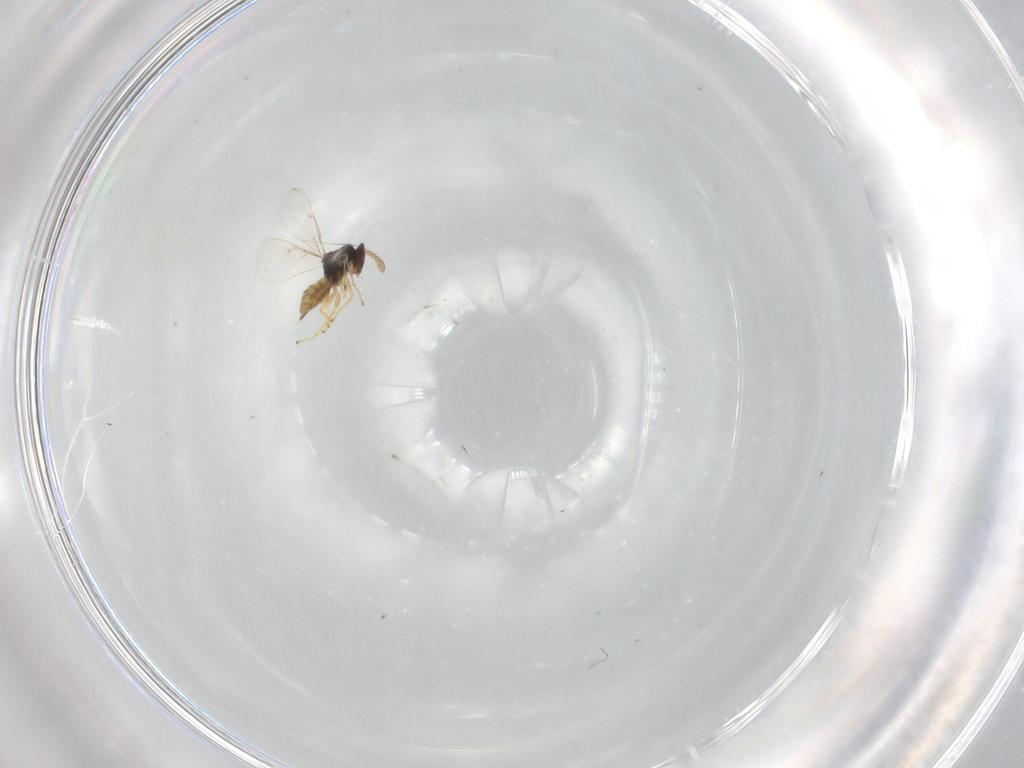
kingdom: Animalia
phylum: Arthropoda
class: Insecta
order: Hymenoptera
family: Eulophidae
